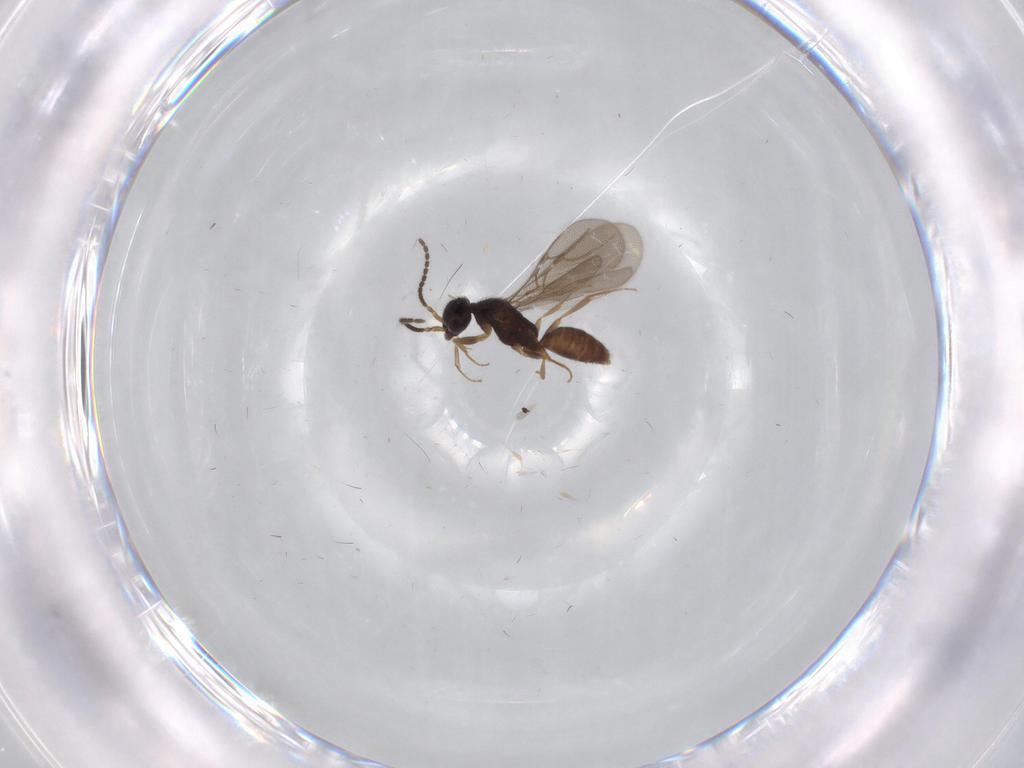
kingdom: Animalia
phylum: Arthropoda
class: Insecta
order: Hymenoptera
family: Bethylidae
